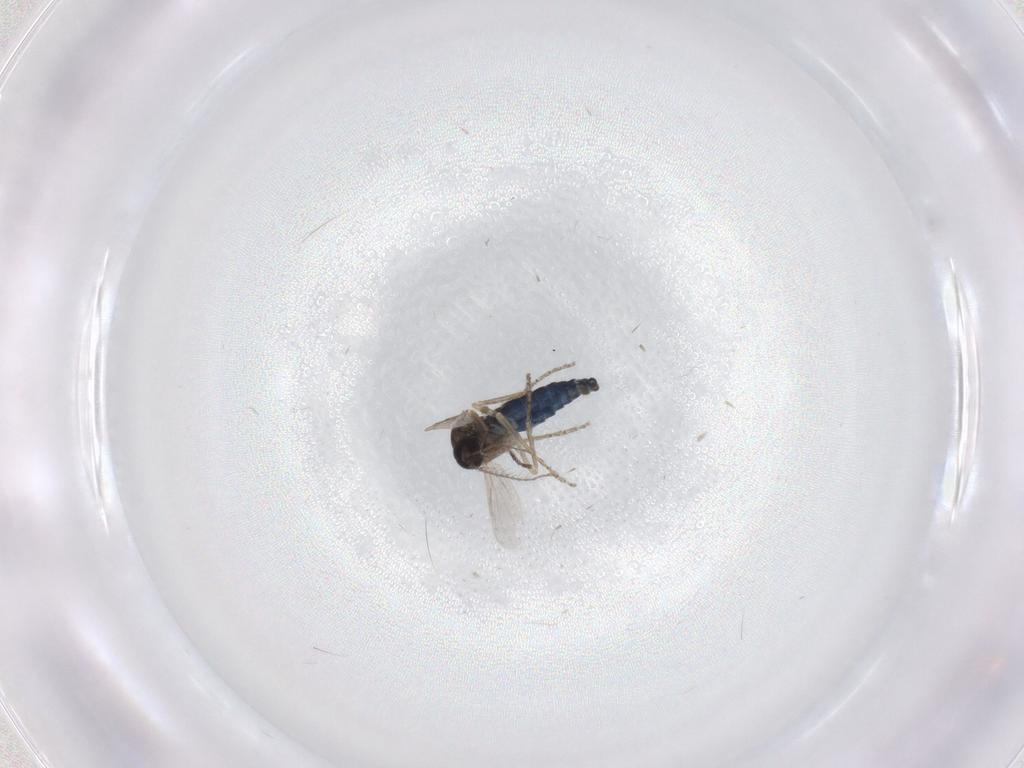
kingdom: Animalia
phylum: Arthropoda
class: Insecta
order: Diptera
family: Ceratopogonidae
